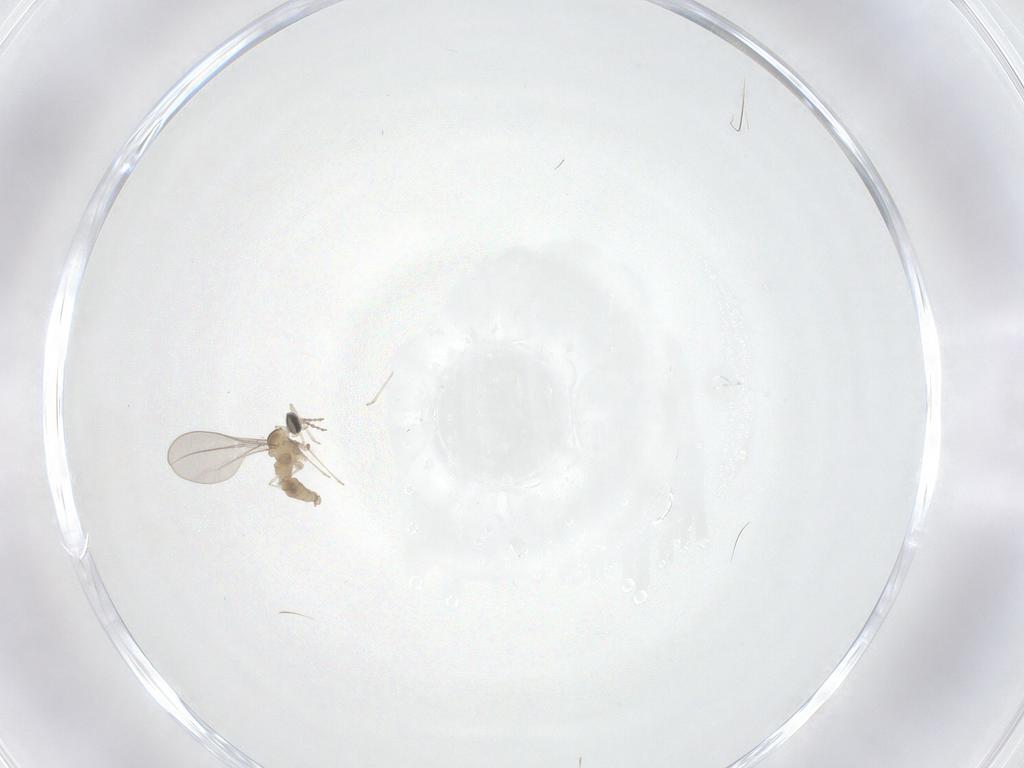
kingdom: Animalia
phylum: Arthropoda
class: Insecta
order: Diptera
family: Cecidomyiidae
